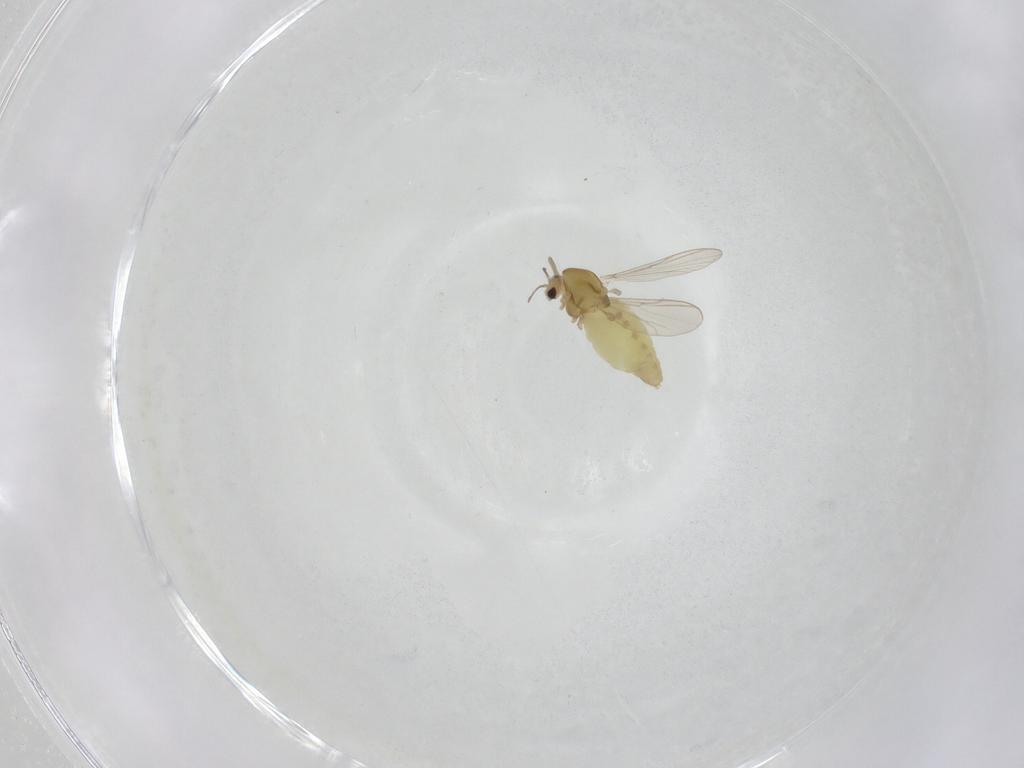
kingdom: Animalia
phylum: Arthropoda
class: Insecta
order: Diptera
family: Chironomidae
